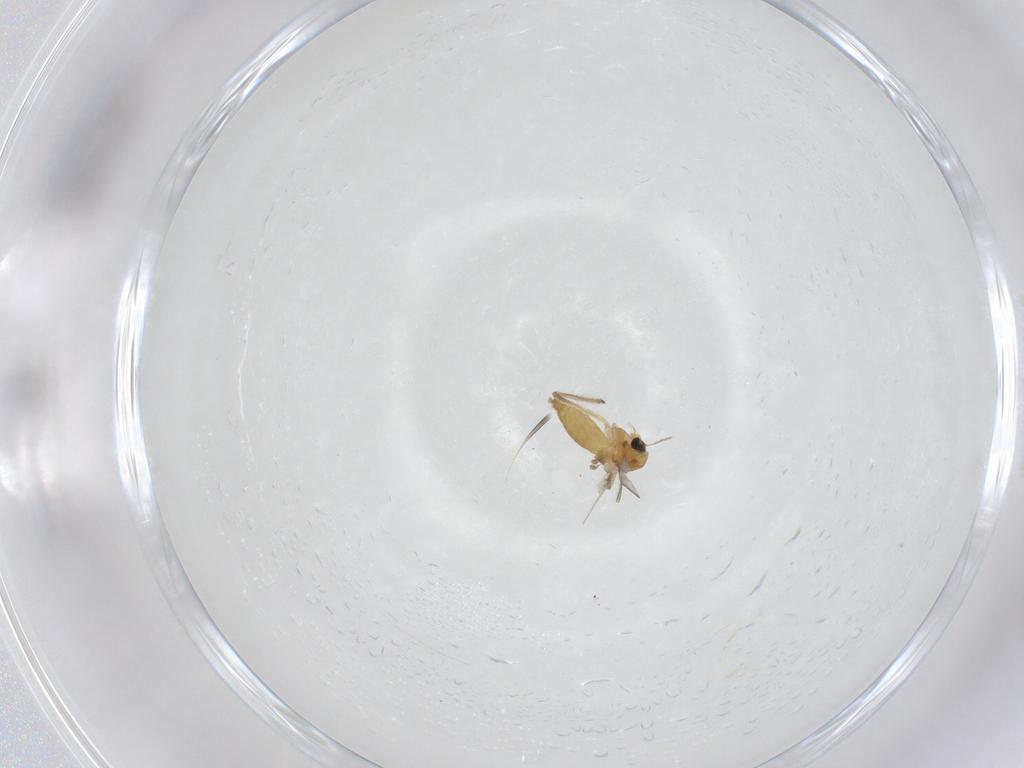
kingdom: Animalia
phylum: Arthropoda
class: Insecta
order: Diptera
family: Chironomidae
